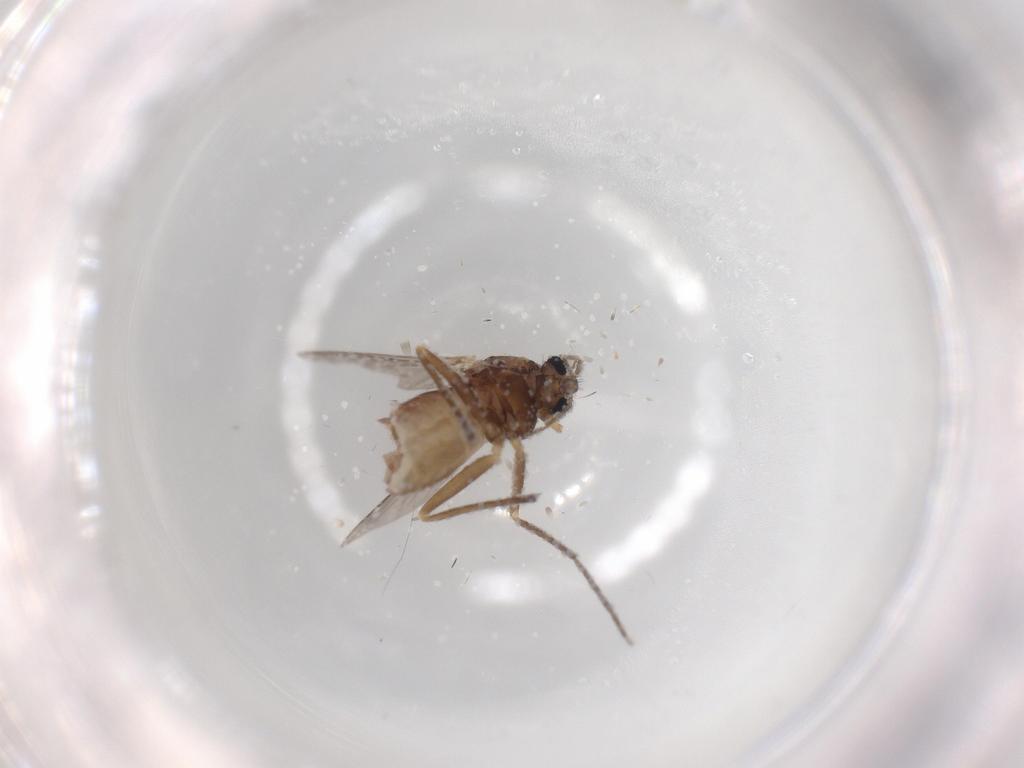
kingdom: Animalia
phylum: Arthropoda
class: Insecta
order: Diptera
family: Chironomidae
